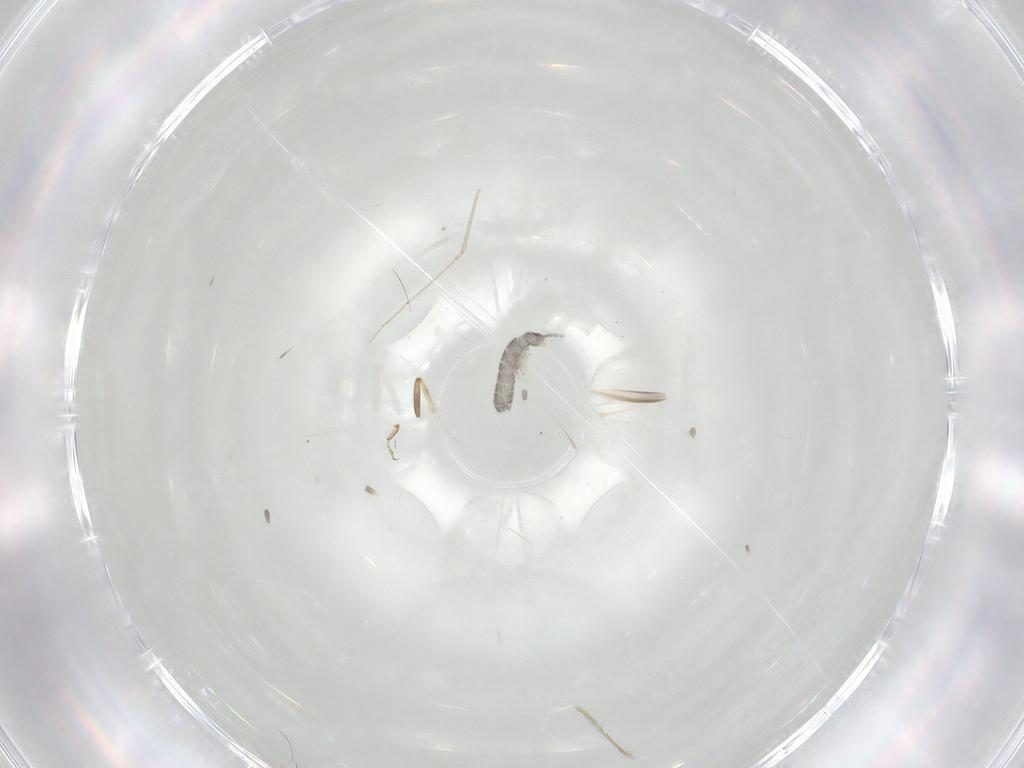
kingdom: Animalia
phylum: Arthropoda
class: Collembola
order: Entomobryomorpha
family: Isotomidae
